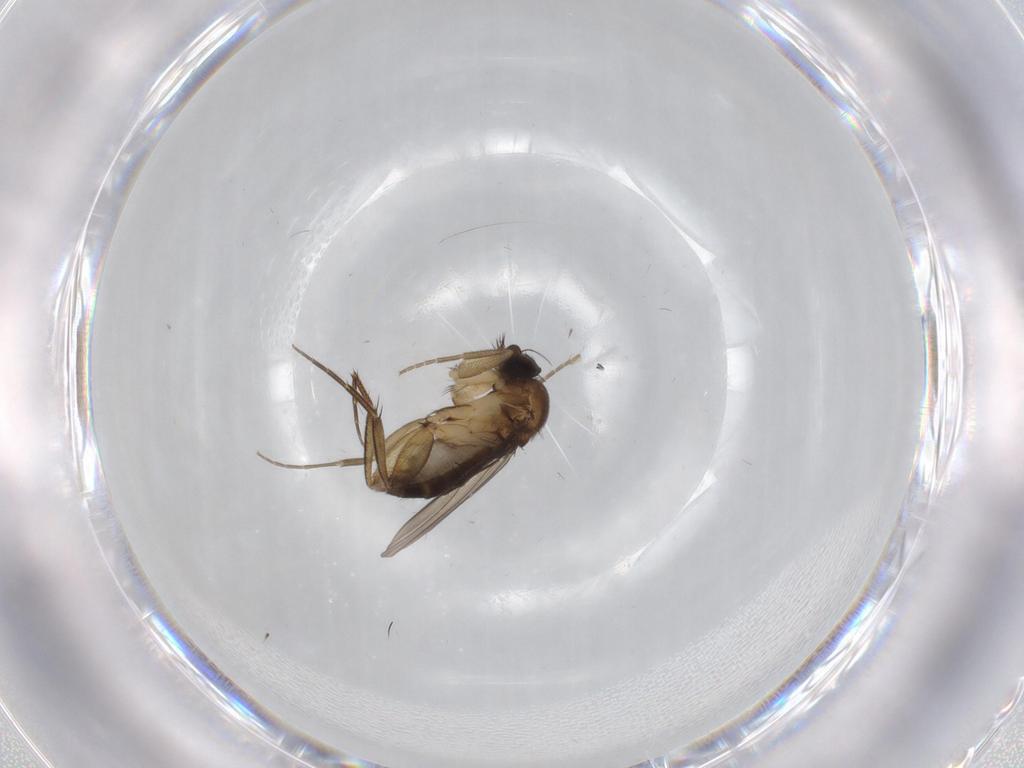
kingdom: Animalia
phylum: Arthropoda
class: Insecta
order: Diptera
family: Phoridae
